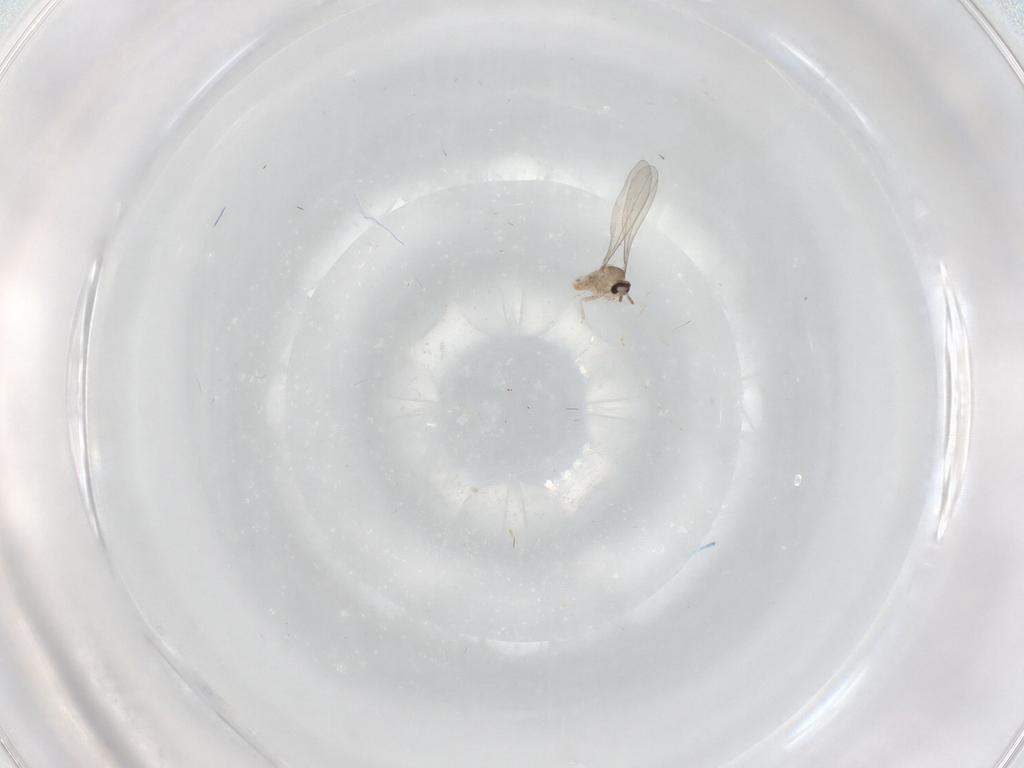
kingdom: Animalia
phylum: Arthropoda
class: Insecta
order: Diptera
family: Cecidomyiidae
